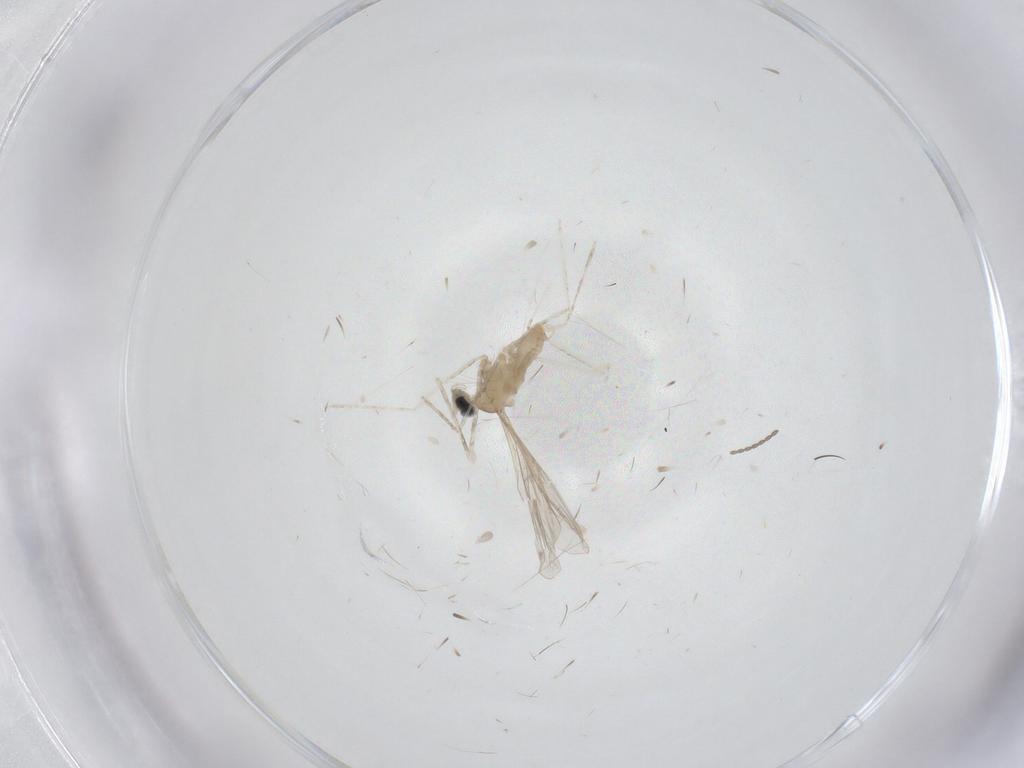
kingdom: Animalia
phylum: Arthropoda
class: Insecta
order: Diptera
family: Cecidomyiidae
